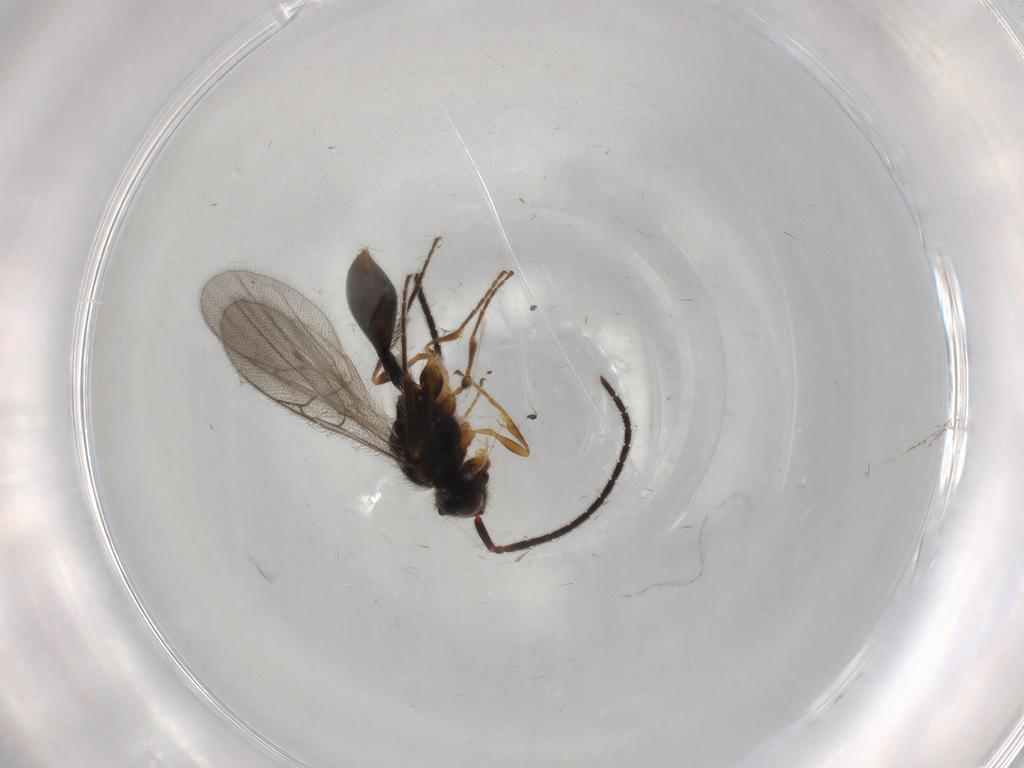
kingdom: Animalia
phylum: Arthropoda
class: Insecta
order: Hymenoptera
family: Diapriidae
